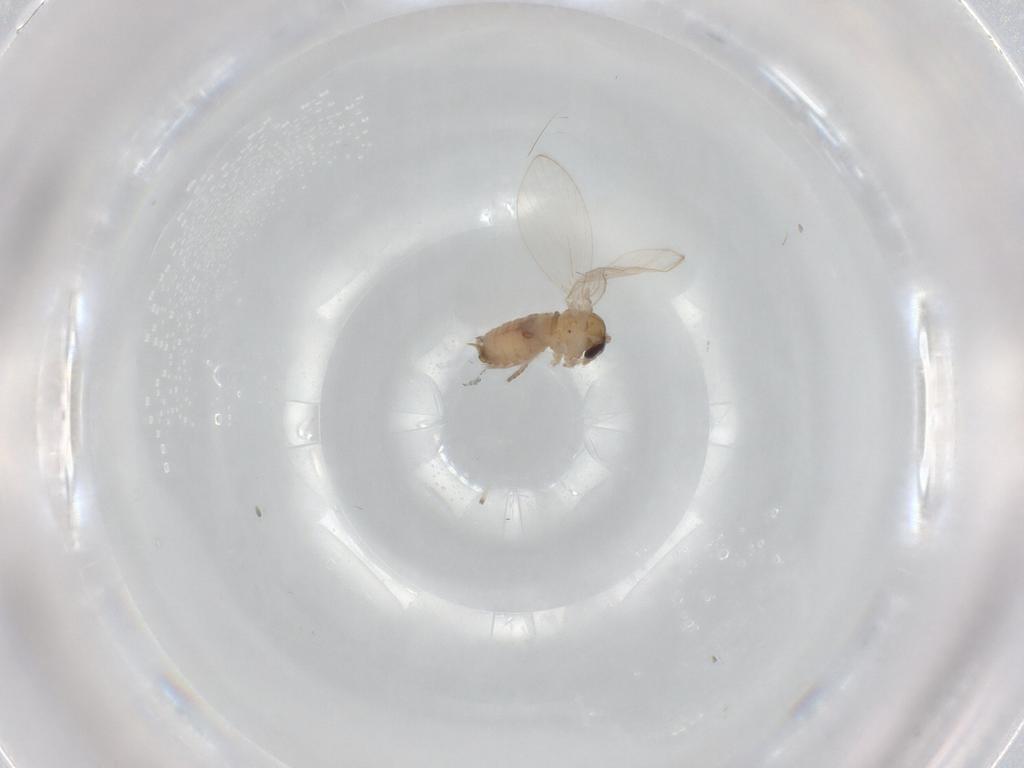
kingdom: Animalia
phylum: Arthropoda
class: Insecta
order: Diptera
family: Psychodidae
